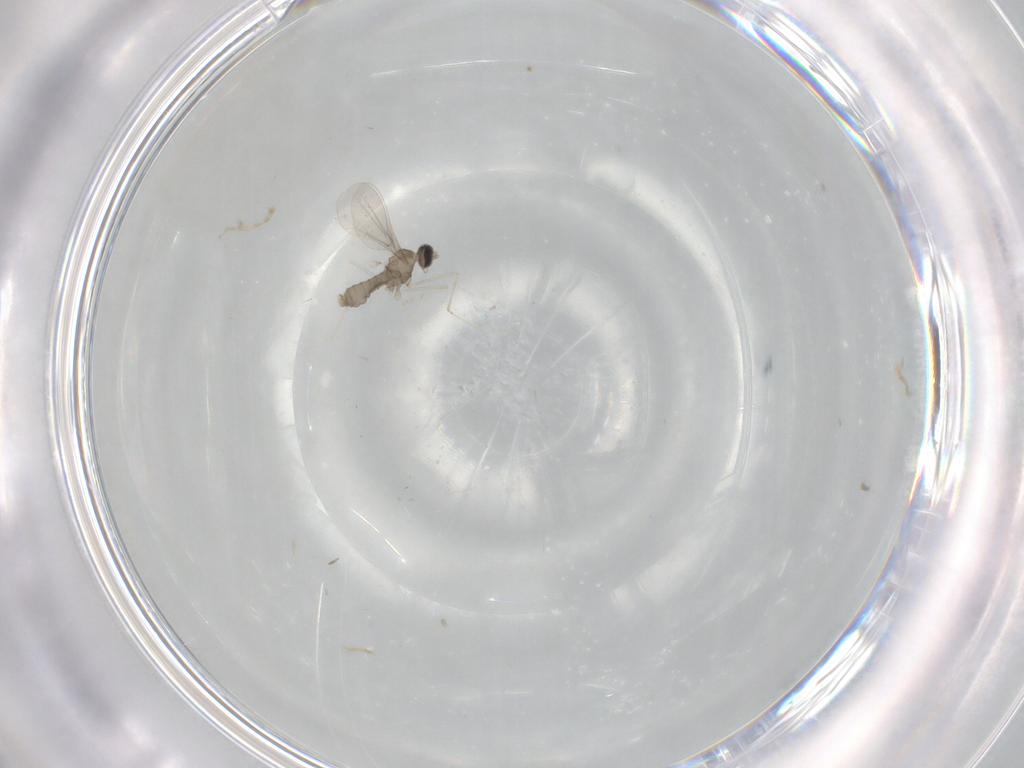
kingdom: Animalia
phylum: Arthropoda
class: Insecta
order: Diptera
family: Cecidomyiidae
